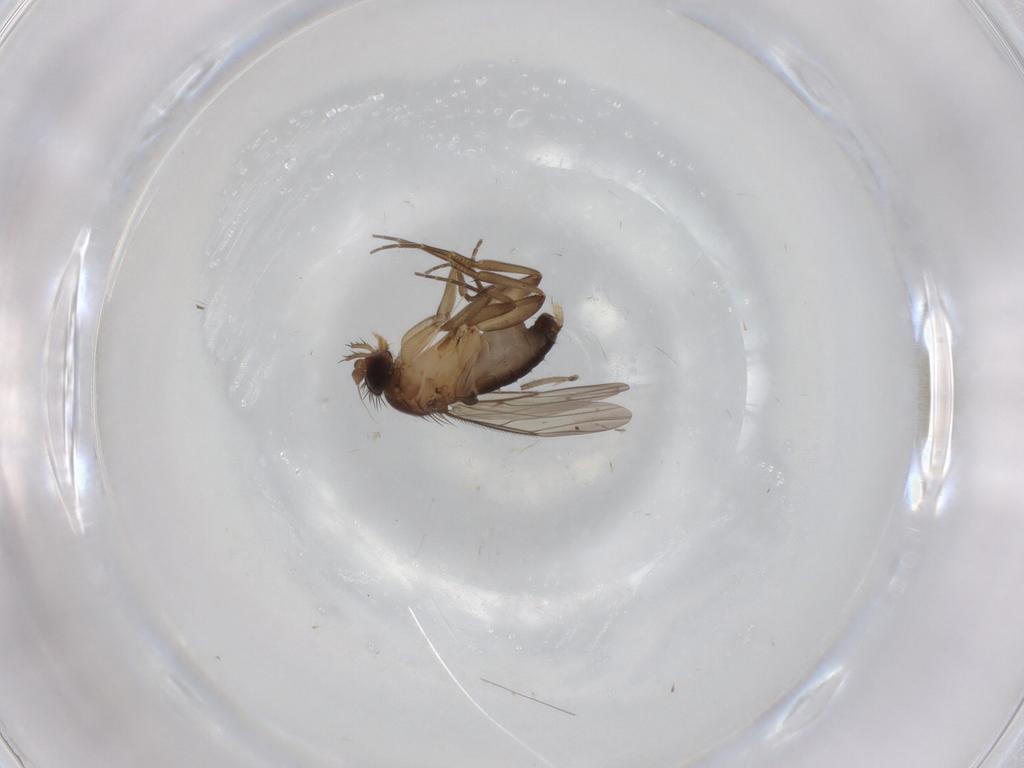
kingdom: Animalia
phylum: Arthropoda
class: Insecta
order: Diptera
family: Phoridae
